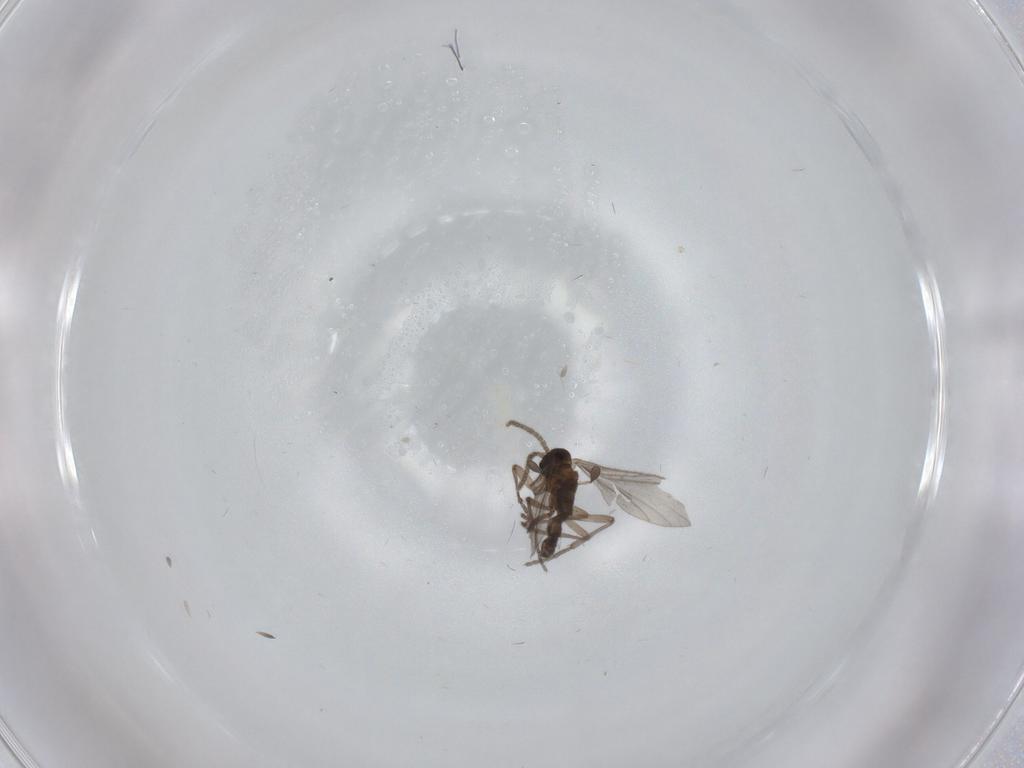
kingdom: Animalia
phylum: Arthropoda
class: Insecta
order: Diptera
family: Sciaridae
